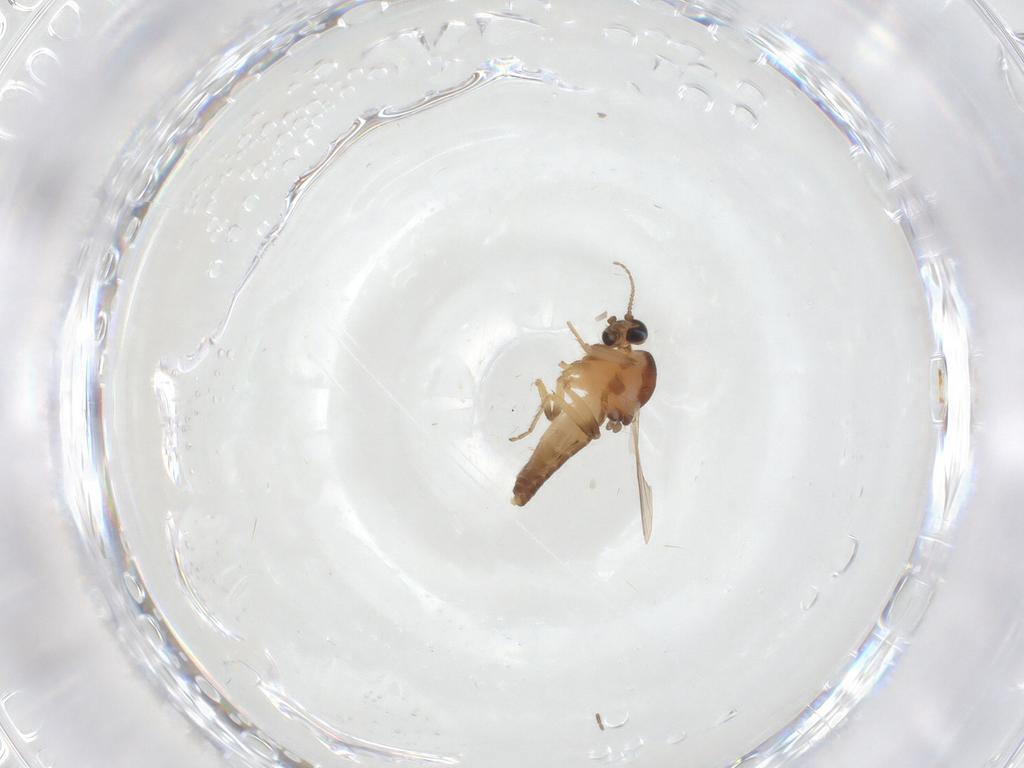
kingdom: Animalia
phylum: Arthropoda
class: Insecta
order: Diptera
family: Ceratopogonidae
